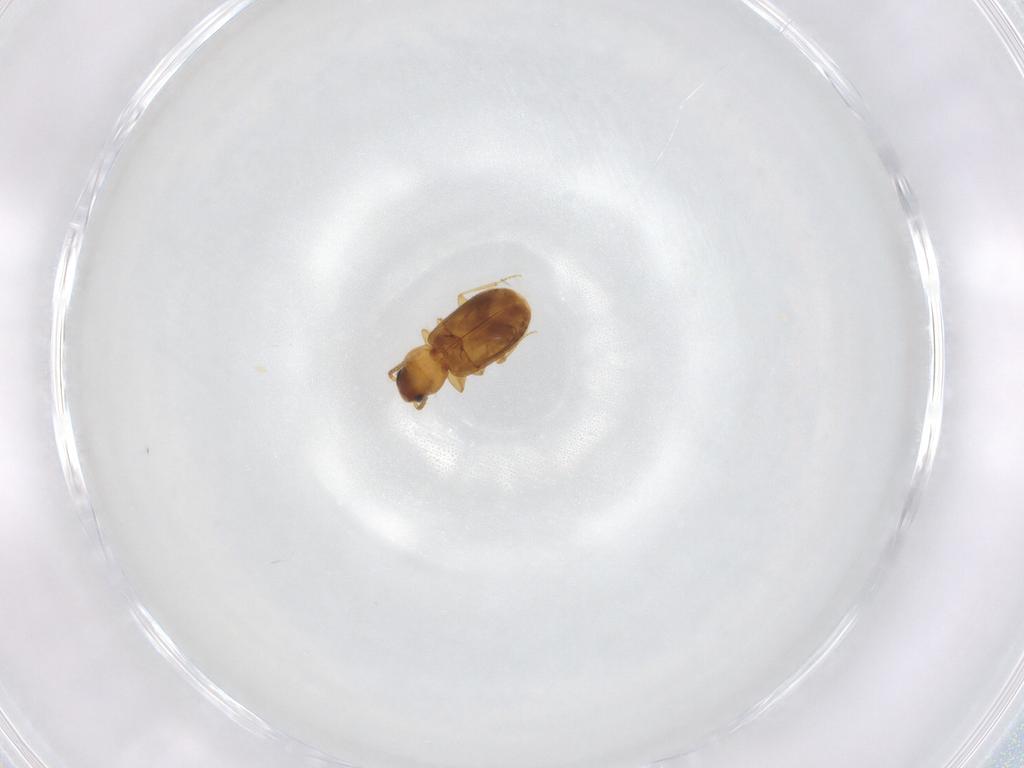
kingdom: Animalia
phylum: Arthropoda
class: Insecta
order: Coleoptera
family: Carabidae
